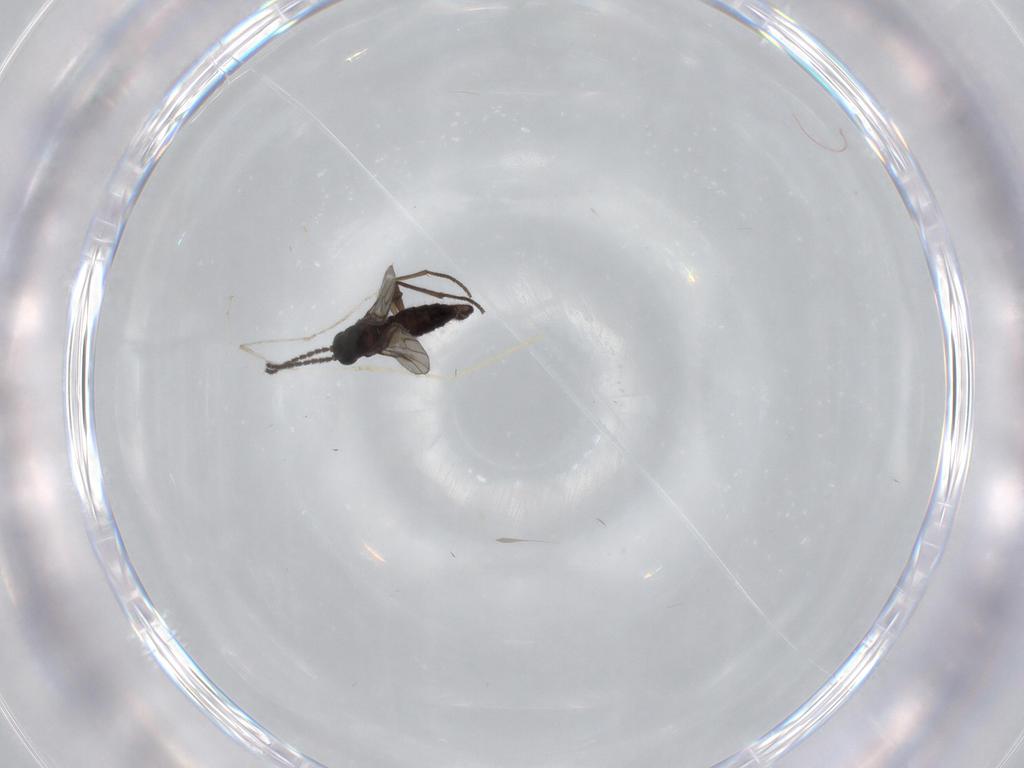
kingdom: Animalia
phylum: Arthropoda
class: Insecta
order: Diptera
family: Sciaridae
